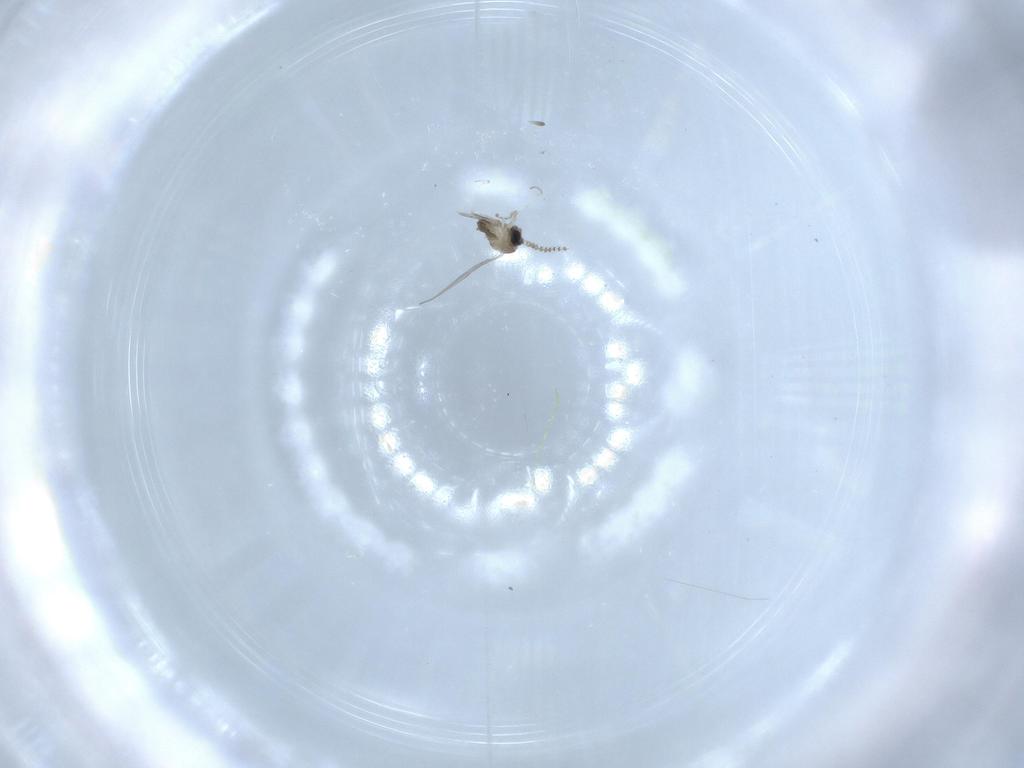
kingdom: Animalia
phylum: Arthropoda
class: Insecta
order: Diptera
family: Cecidomyiidae
